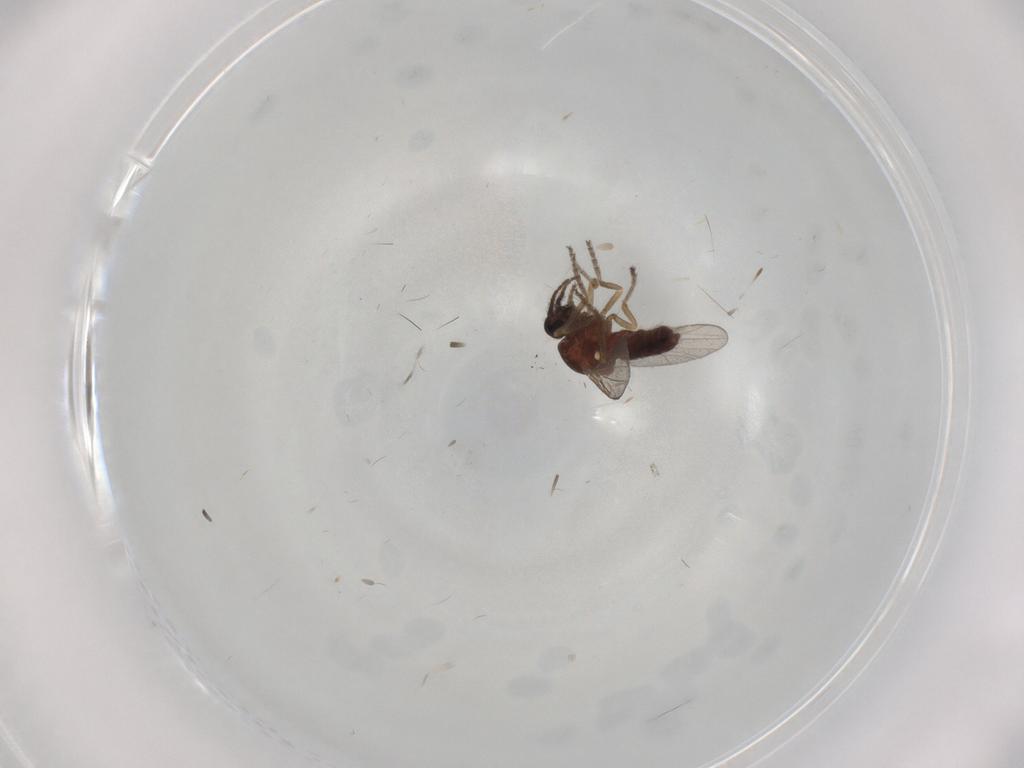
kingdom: Animalia
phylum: Arthropoda
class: Insecta
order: Diptera
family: Ceratopogonidae
